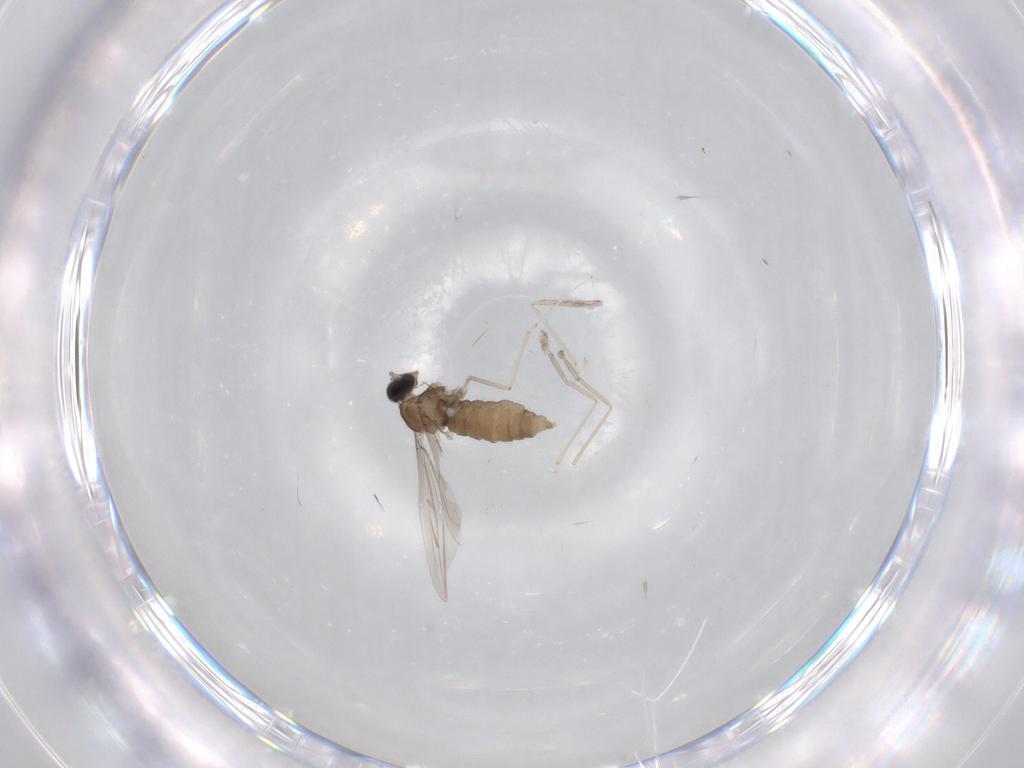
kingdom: Animalia
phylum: Arthropoda
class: Insecta
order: Diptera
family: Cecidomyiidae
